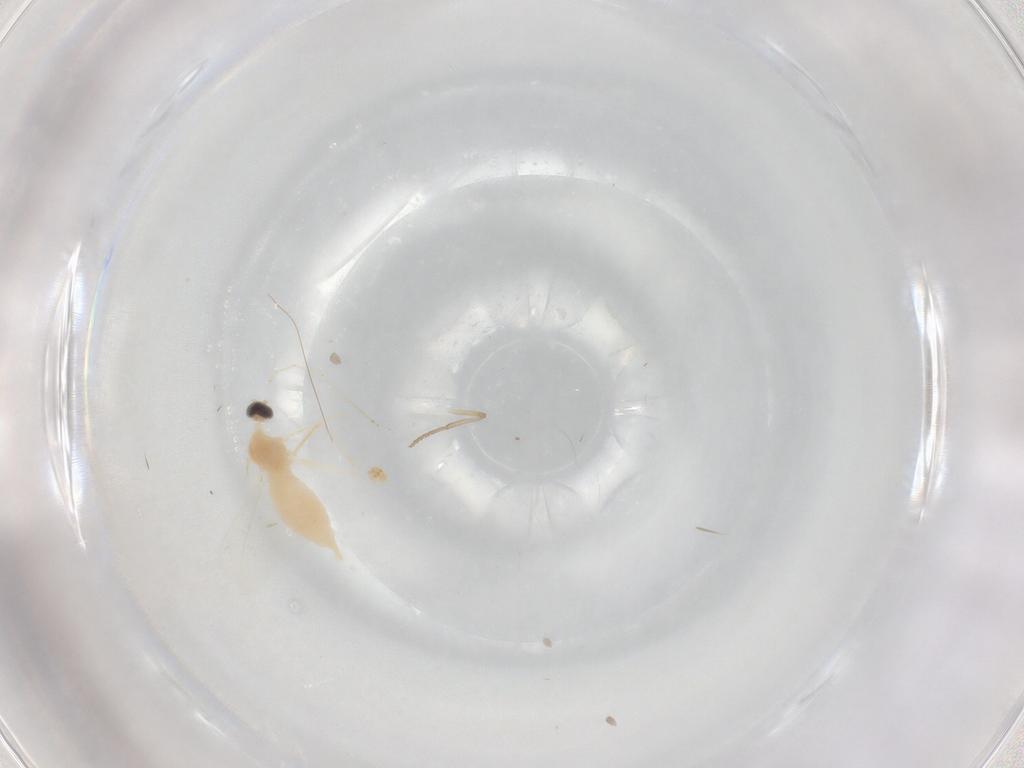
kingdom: Animalia
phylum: Arthropoda
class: Insecta
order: Diptera
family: Cecidomyiidae
